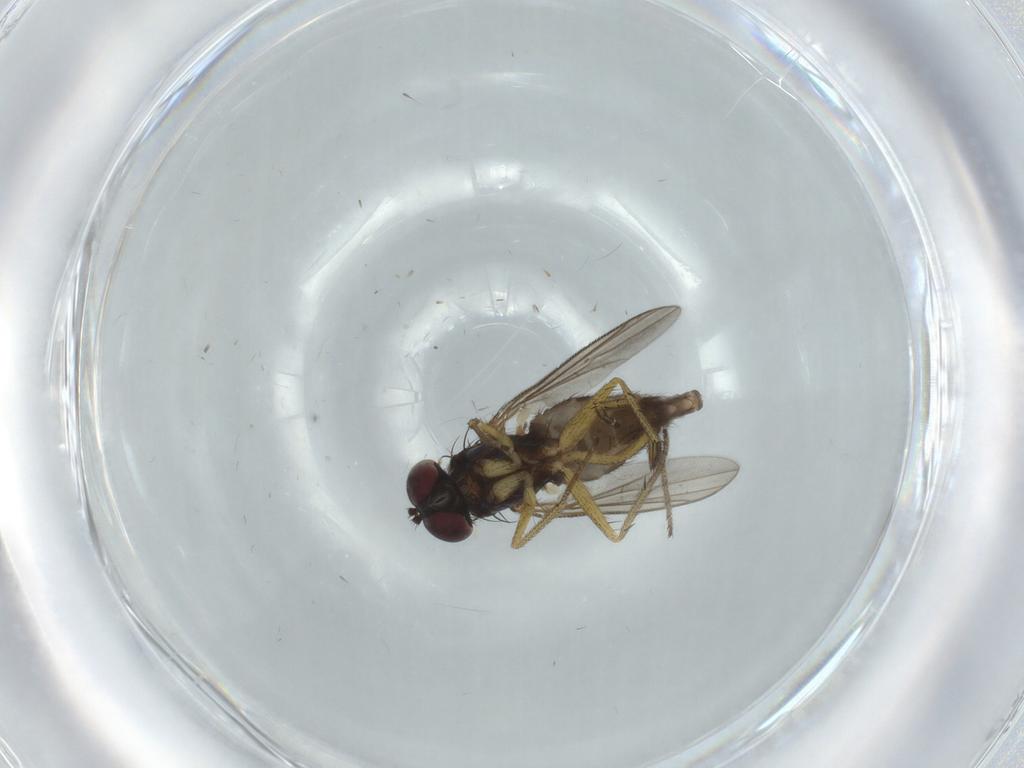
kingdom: Animalia
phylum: Arthropoda
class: Insecta
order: Diptera
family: Dolichopodidae
